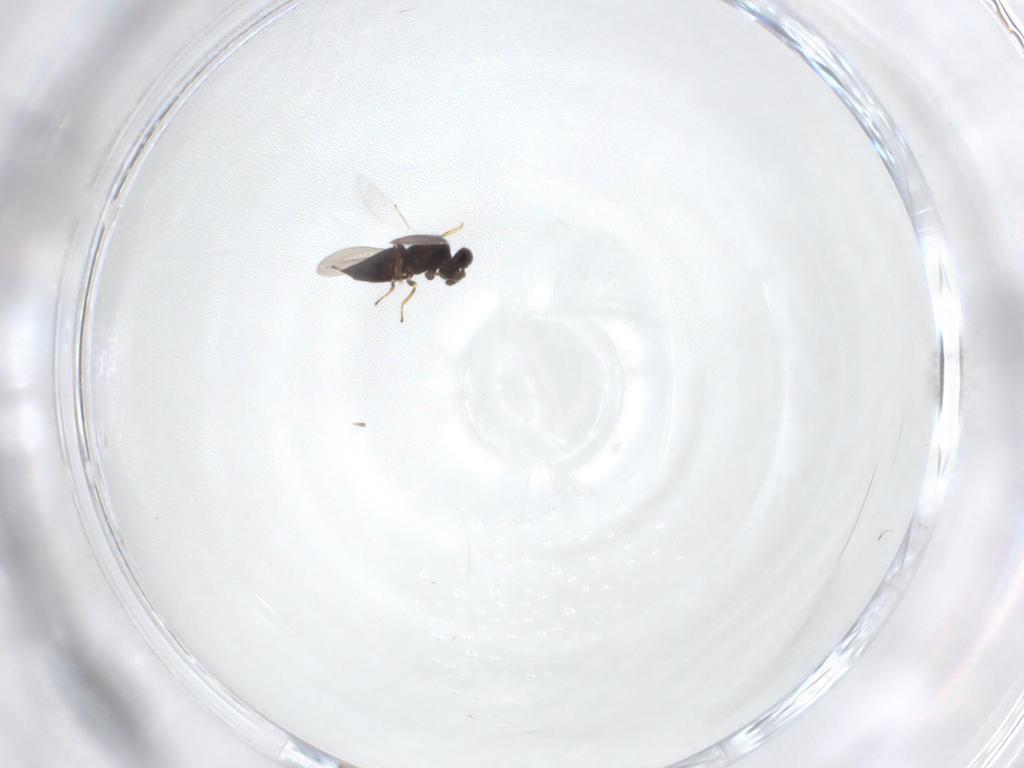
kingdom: Animalia
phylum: Arthropoda
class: Insecta
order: Hymenoptera
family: Eulophidae
